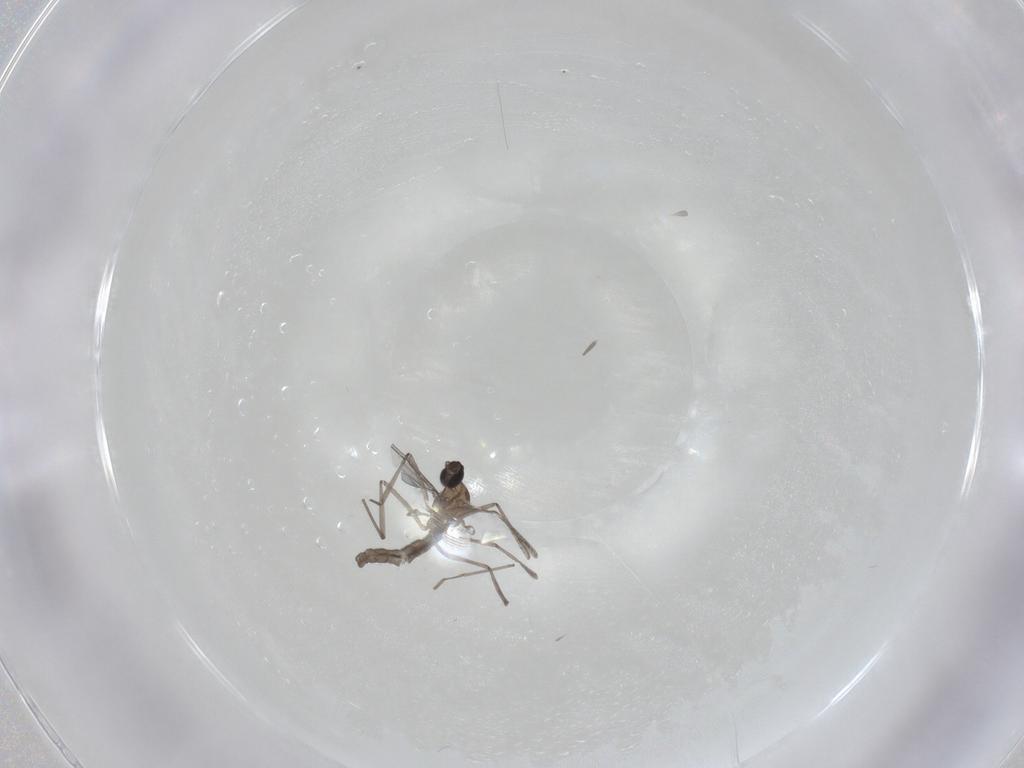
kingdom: Animalia
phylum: Arthropoda
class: Insecta
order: Diptera
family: Cecidomyiidae
